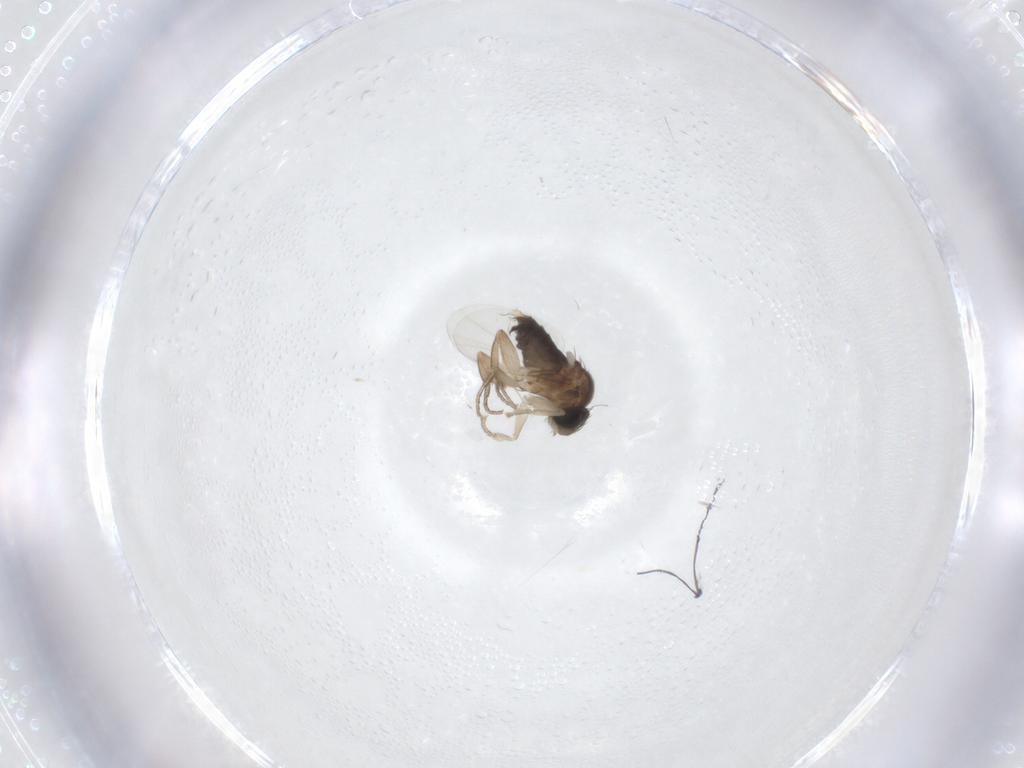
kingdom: Animalia
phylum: Arthropoda
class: Insecta
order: Diptera
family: Phoridae
